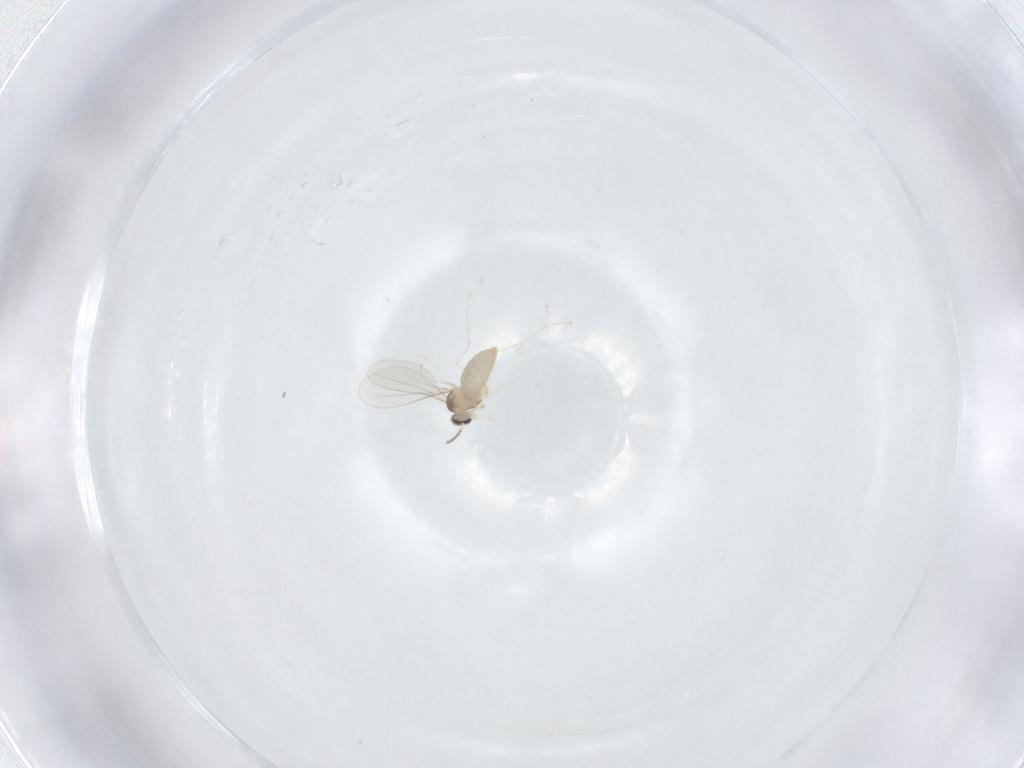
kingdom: Animalia
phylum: Arthropoda
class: Insecta
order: Diptera
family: Cecidomyiidae
